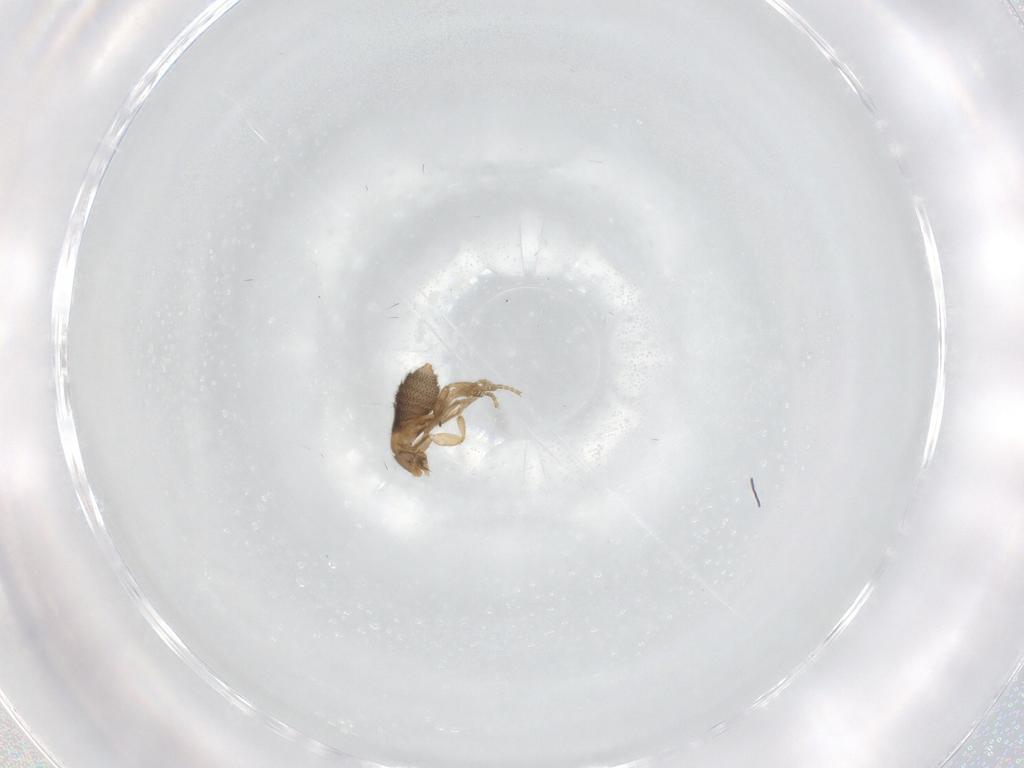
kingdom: Animalia
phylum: Arthropoda
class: Insecta
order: Diptera
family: Phoridae
